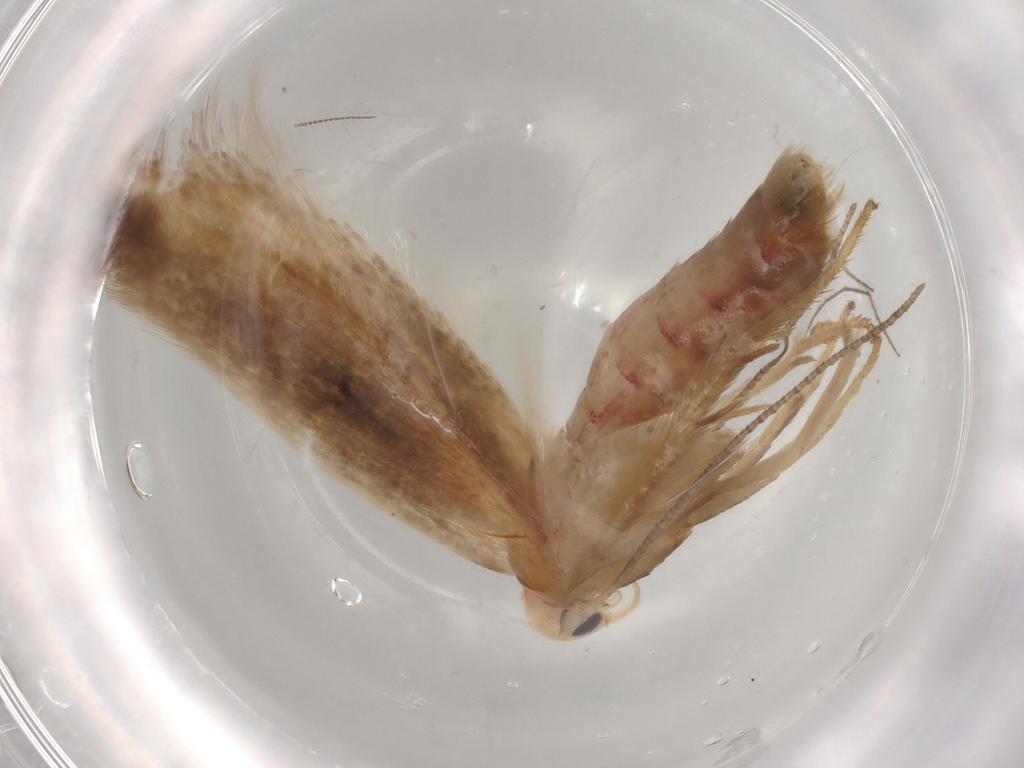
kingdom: Animalia
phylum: Arthropoda
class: Insecta
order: Lepidoptera
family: Geometridae
